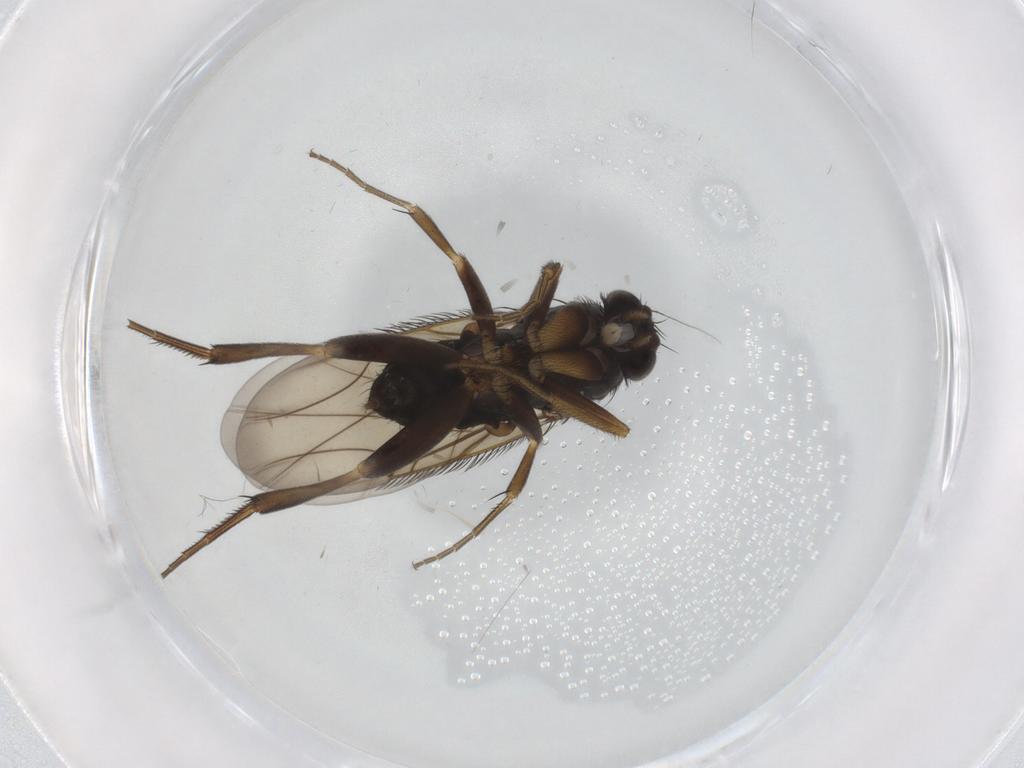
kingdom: Animalia
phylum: Arthropoda
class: Insecta
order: Diptera
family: Phoridae
